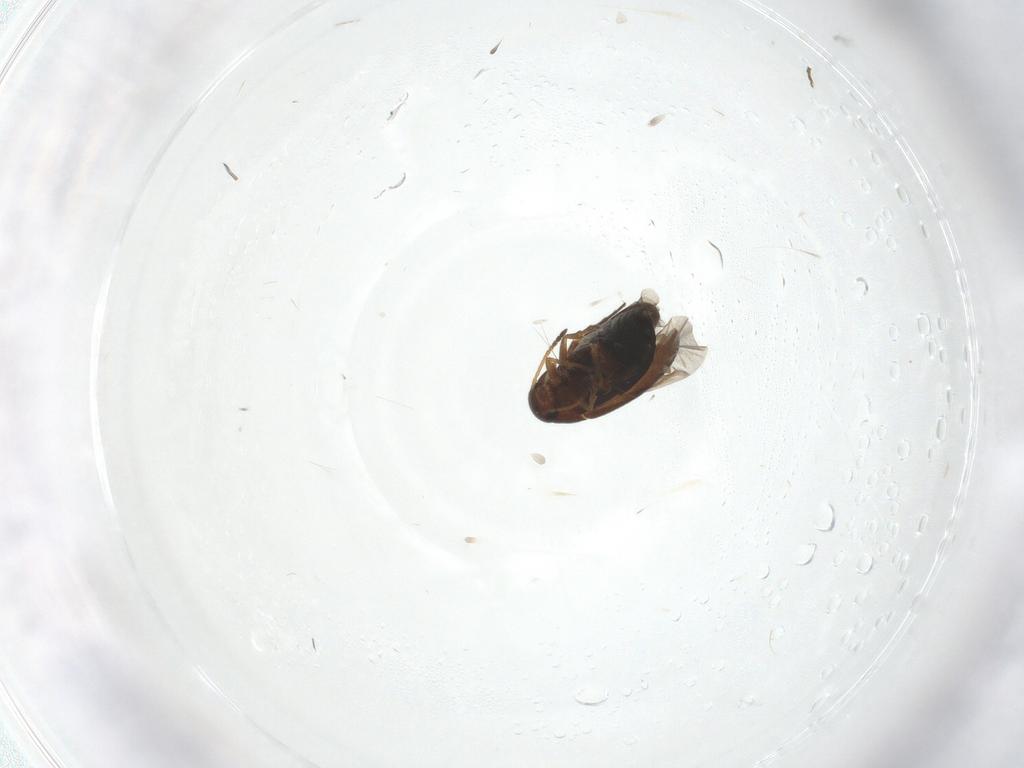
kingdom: Animalia
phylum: Arthropoda
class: Insecta
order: Coleoptera
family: Scraptiidae
